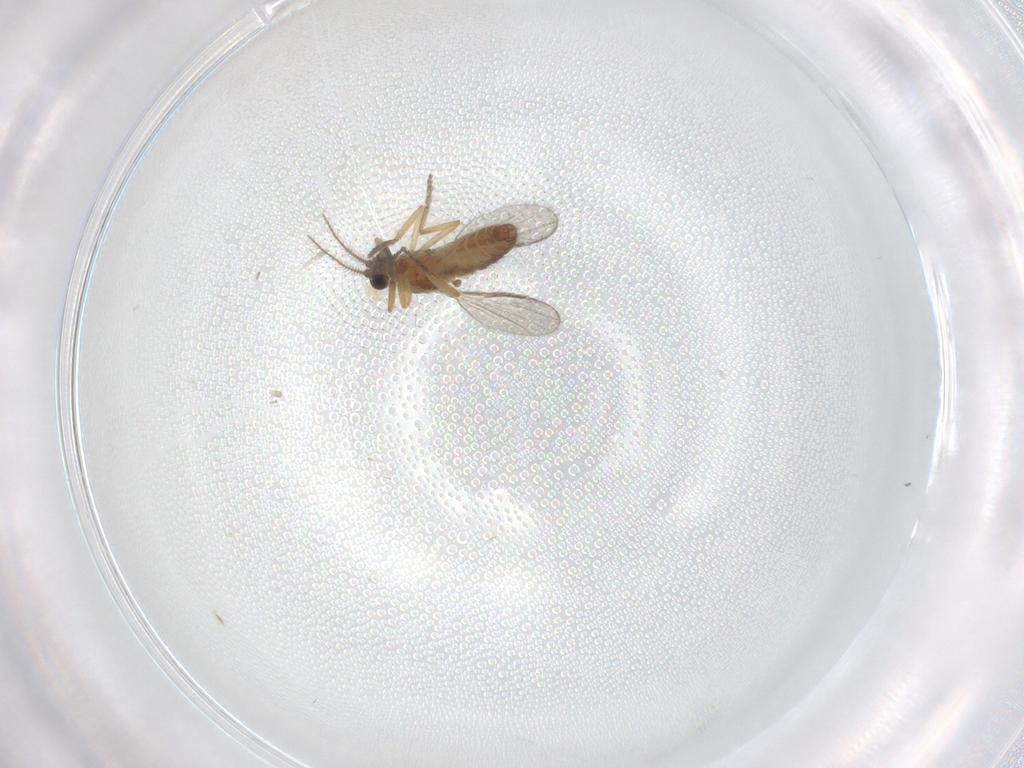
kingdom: Animalia
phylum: Arthropoda
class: Insecta
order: Diptera
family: Ceratopogonidae
